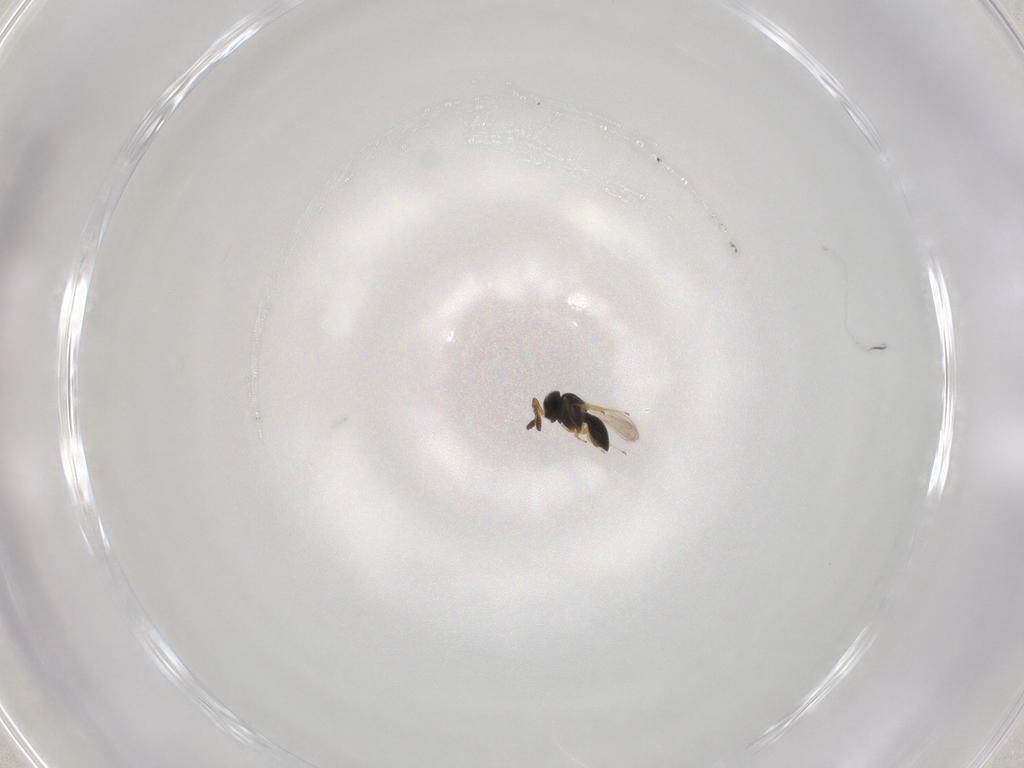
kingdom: Animalia
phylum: Arthropoda
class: Insecta
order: Hymenoptera
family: Scelionidae
